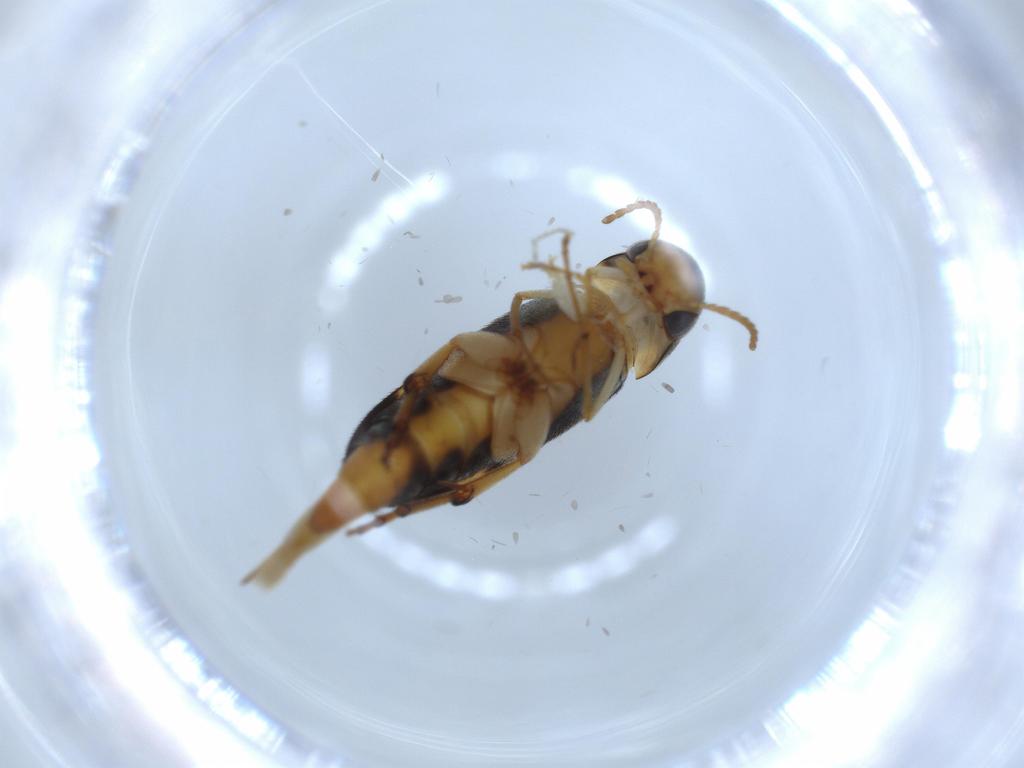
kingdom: Animalia
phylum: Arthropoda
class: Insecta
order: Coleoptera
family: Mordellidae
